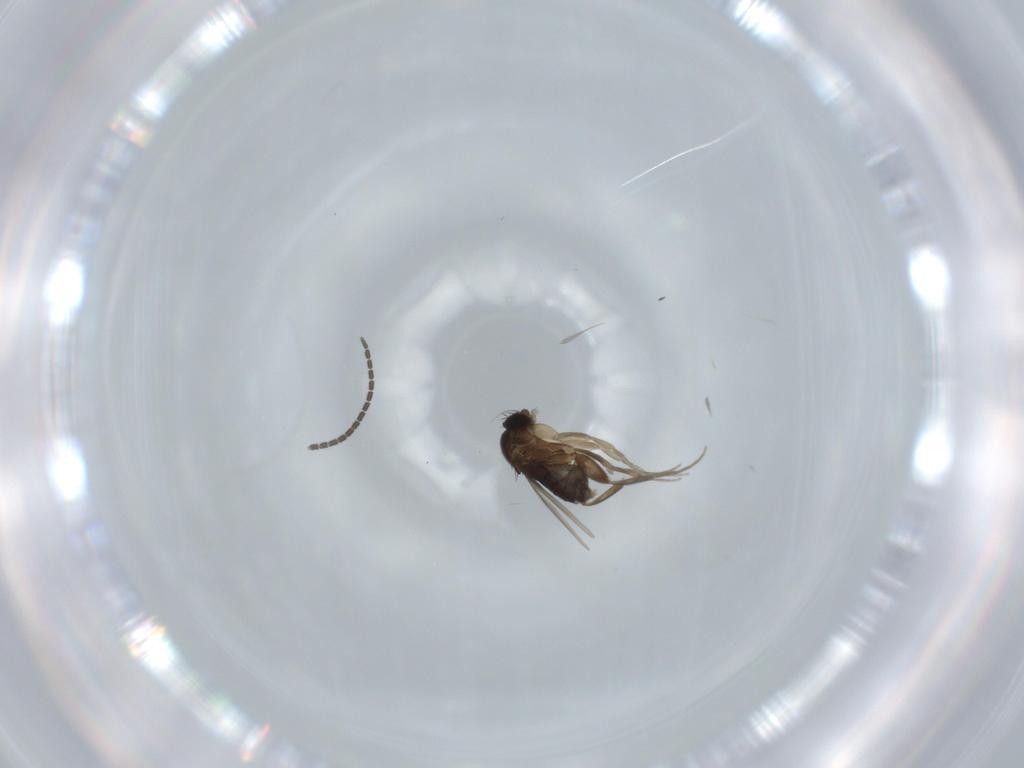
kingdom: Animalia
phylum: Arthropoda
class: Insecta
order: Diptera
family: Phoridae
